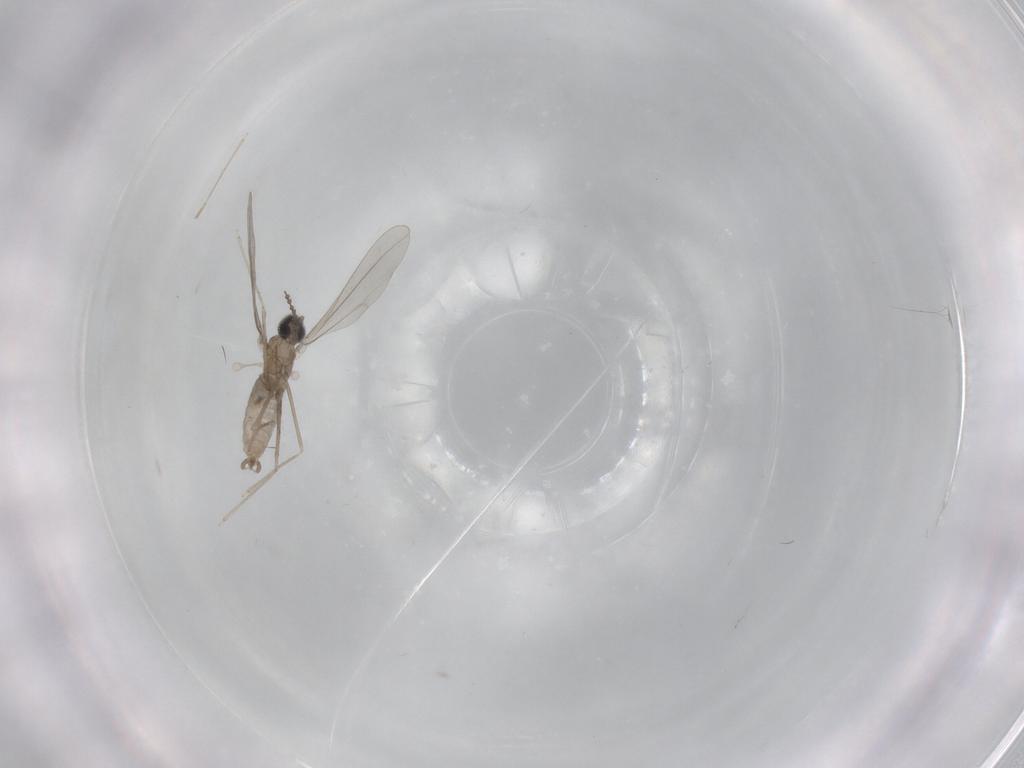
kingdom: Animalia
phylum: Arthropoda
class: Insecta
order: Diptera
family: Cecidomyiidae
